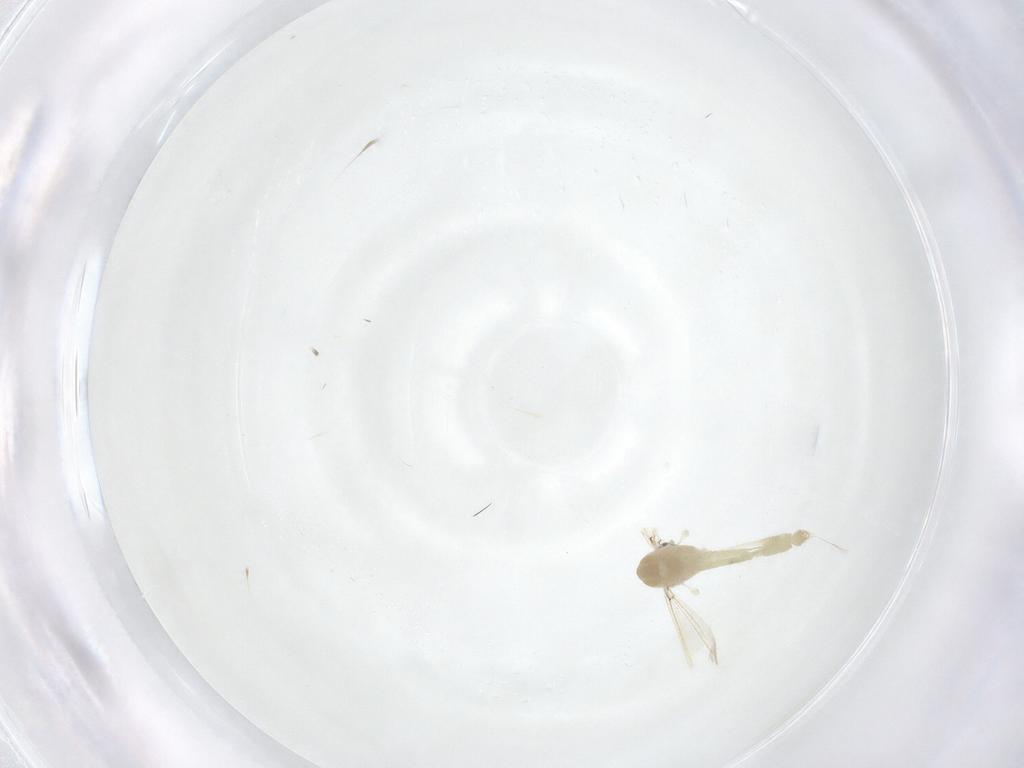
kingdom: Animalia
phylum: Arthropoda
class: Insecta
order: Diptera
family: Chironomidae
